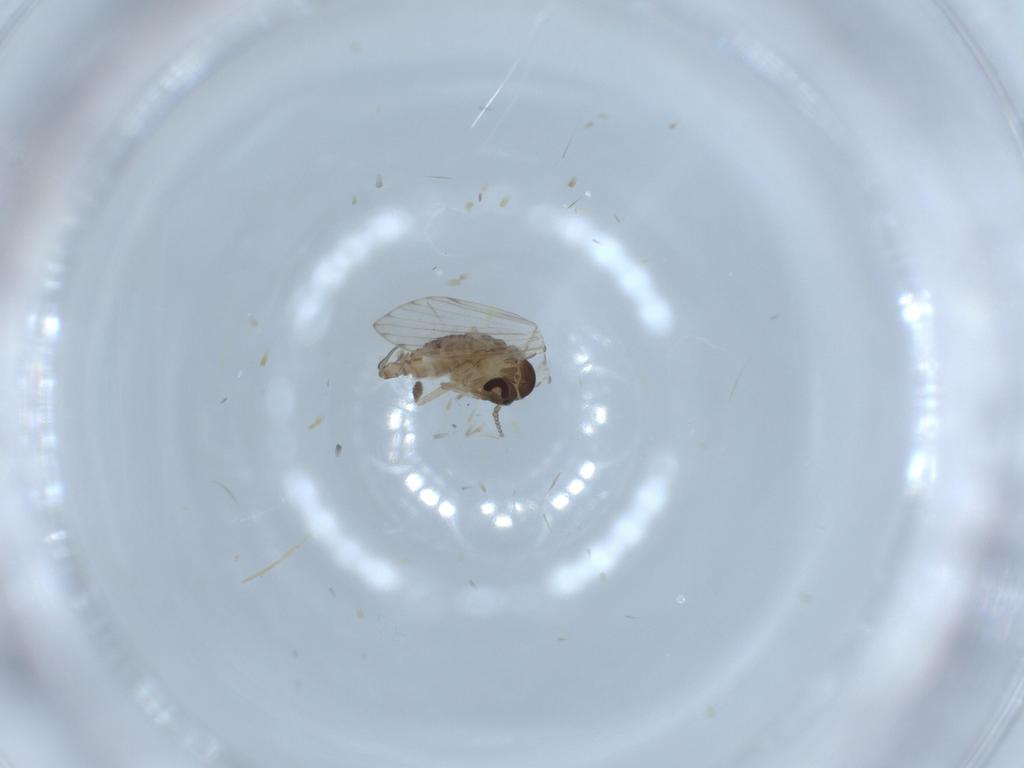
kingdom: Animalia
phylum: Arthropoda
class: Insecta
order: Diptera
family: Psychodidae
